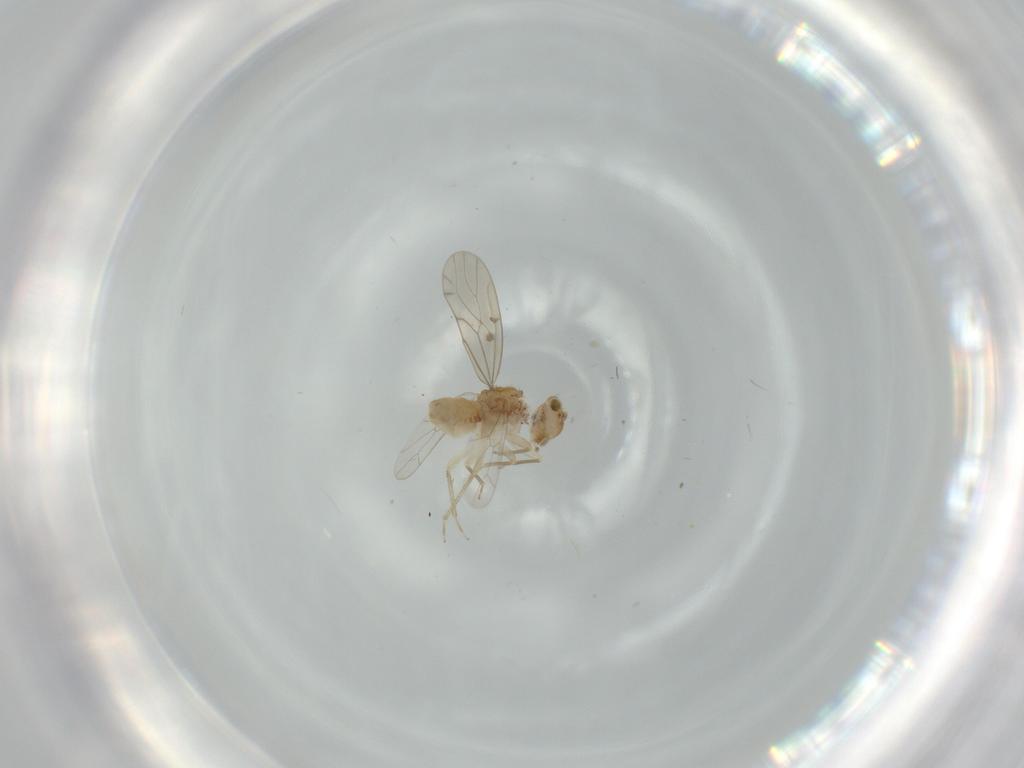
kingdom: Animalia
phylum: Arthropoda
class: Insecta
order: Psocodea
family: Ectopsocidae
